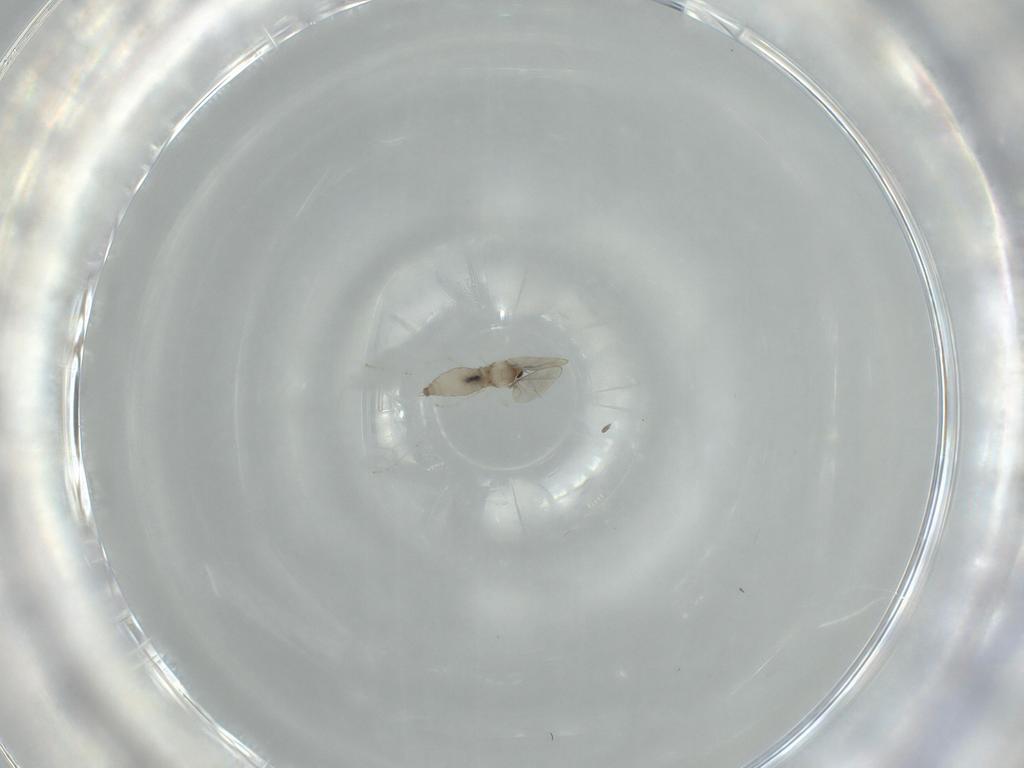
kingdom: Animalia
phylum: Arthropoda
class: Insecta
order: Diptera
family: Cecidomyiidae
